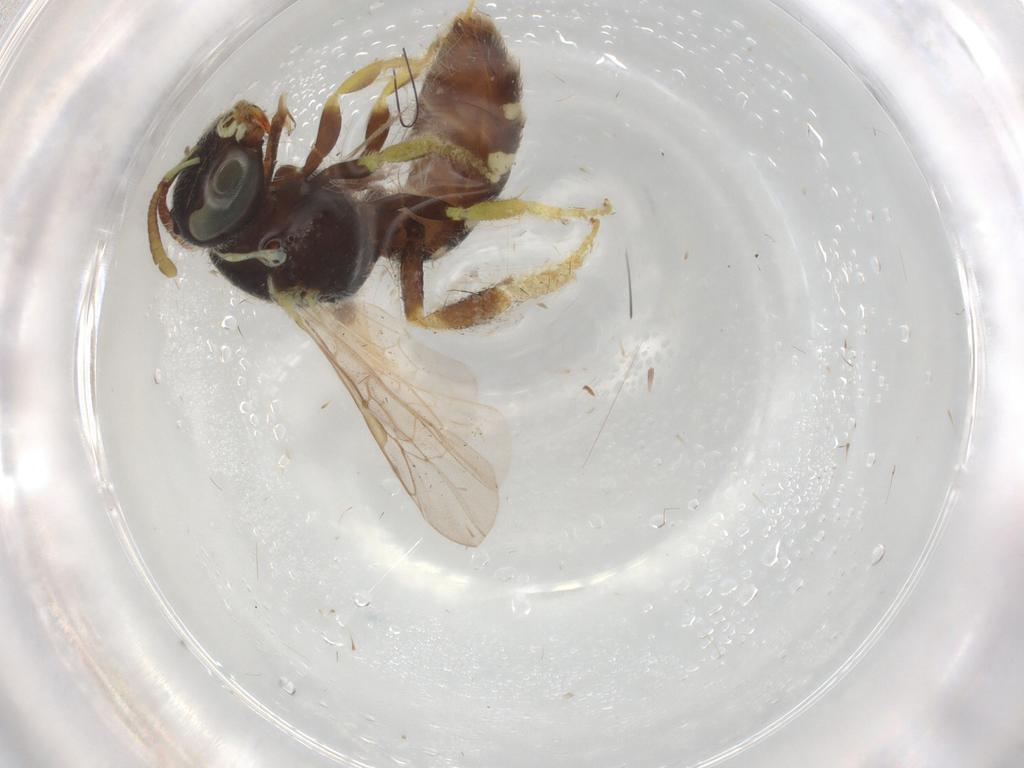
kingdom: Animalia
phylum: Arthropoda
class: Insecta
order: Hymenoptera
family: Scelionidae
